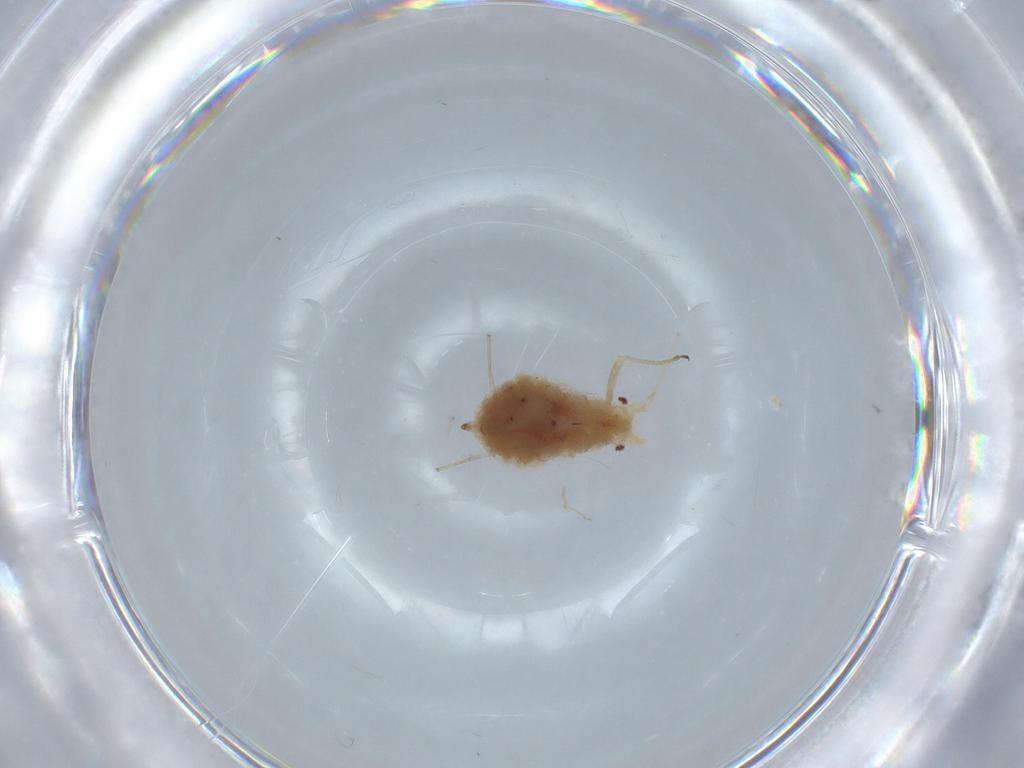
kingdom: Animalia
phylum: Arthropoda
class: Insecta
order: Hemiptera
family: Aphididae
